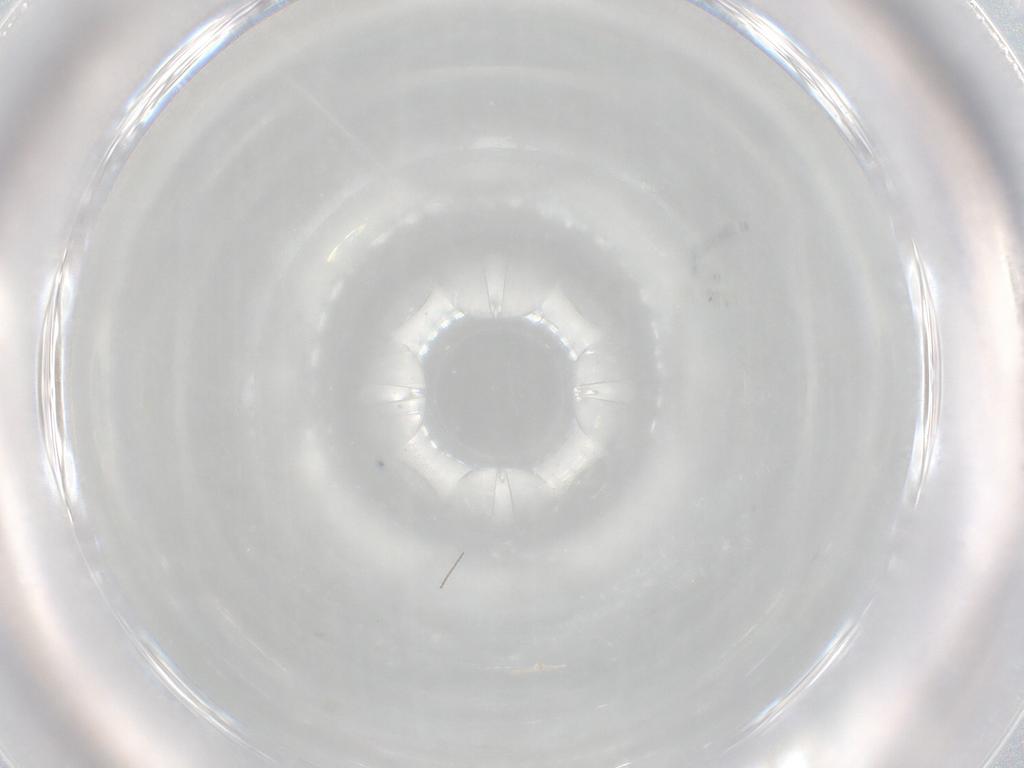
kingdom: Animalia
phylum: Arthropoda
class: Insecta
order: Diptera
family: Cecidomyiidae
